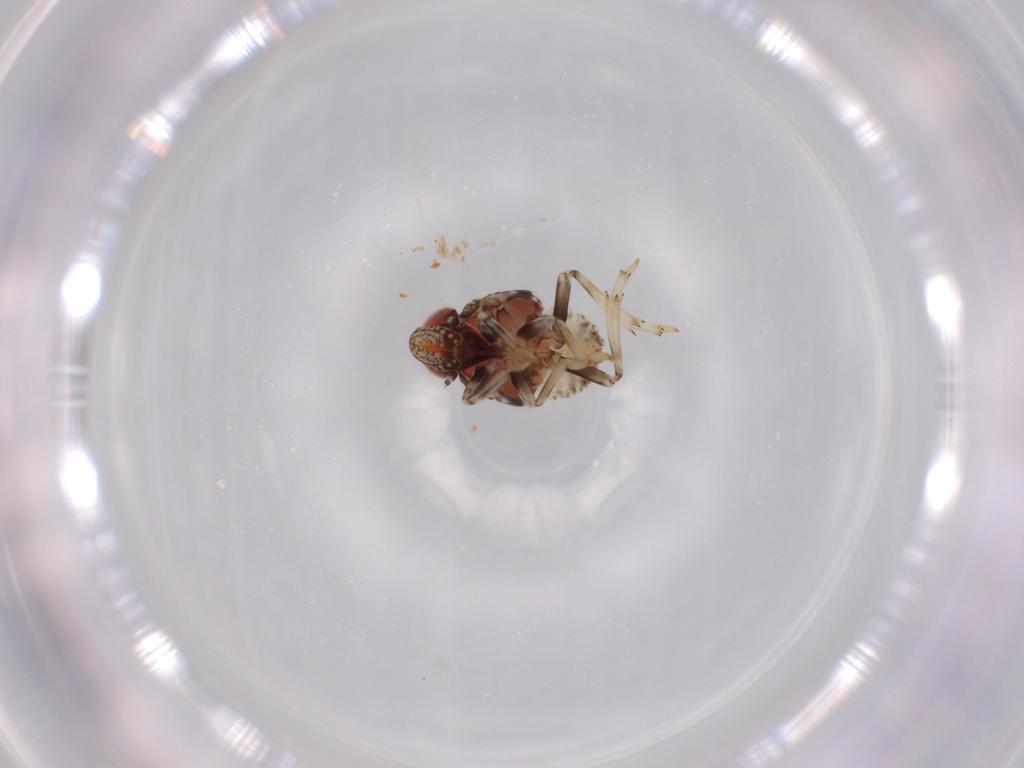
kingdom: Animalia
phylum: Arthropoda
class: Insecta
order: Hemiptera
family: Issidae
